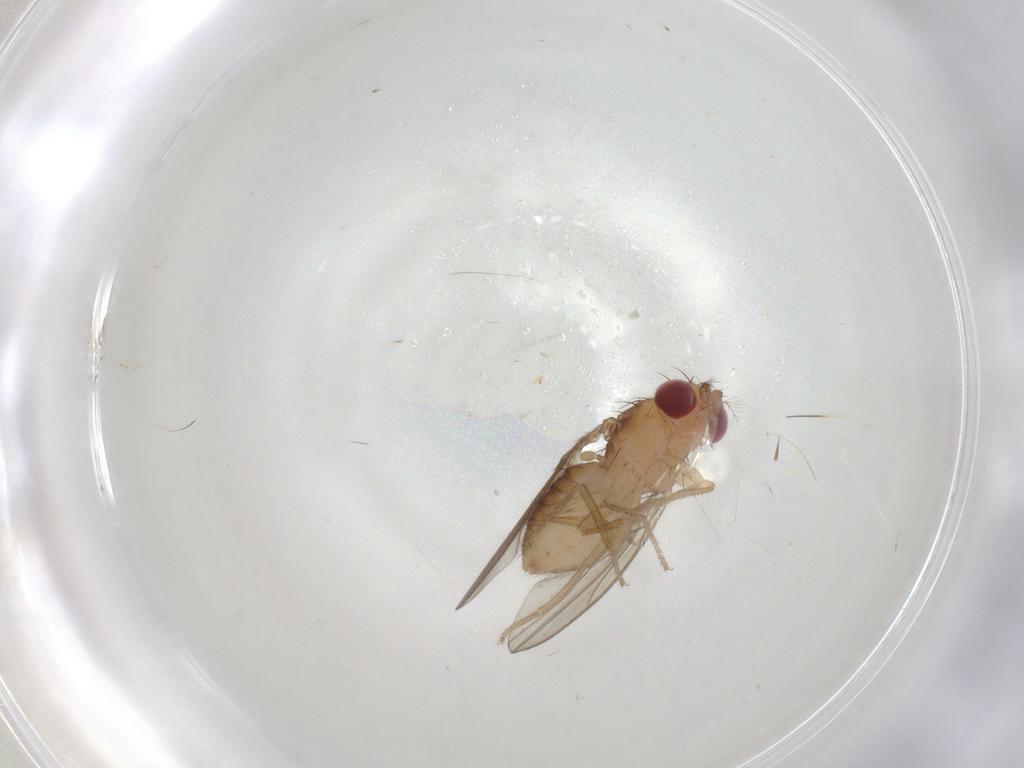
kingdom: Animalia
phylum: Arthropoda
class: Insecta
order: Diptera
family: Drosophilidae
